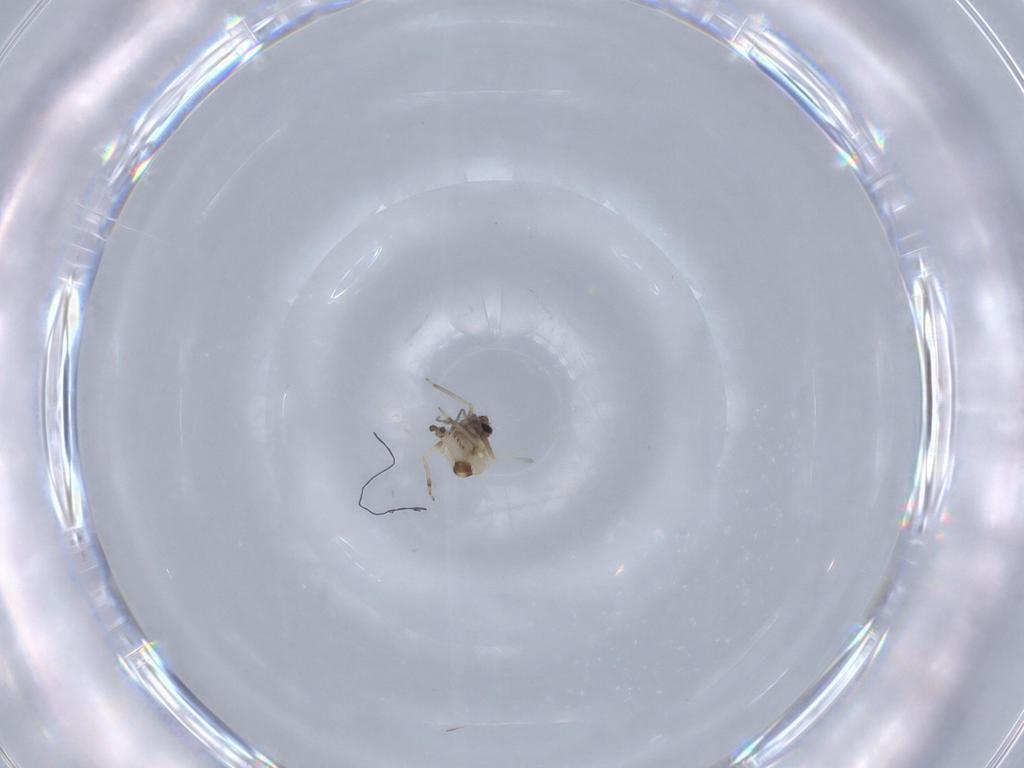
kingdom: Animalia
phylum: Arthropoda
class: Insecta
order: Diptera
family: Ceratopogonidae
